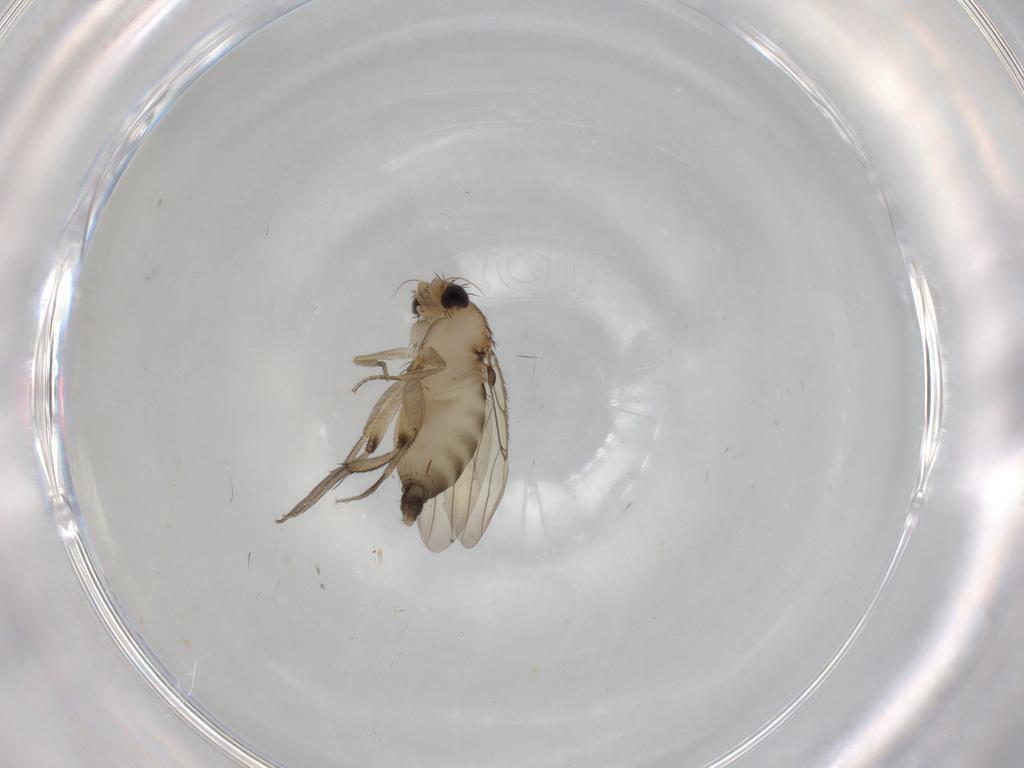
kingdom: Animalia
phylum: Arthropoda
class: Insecta
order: Diptera
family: Phoridae
